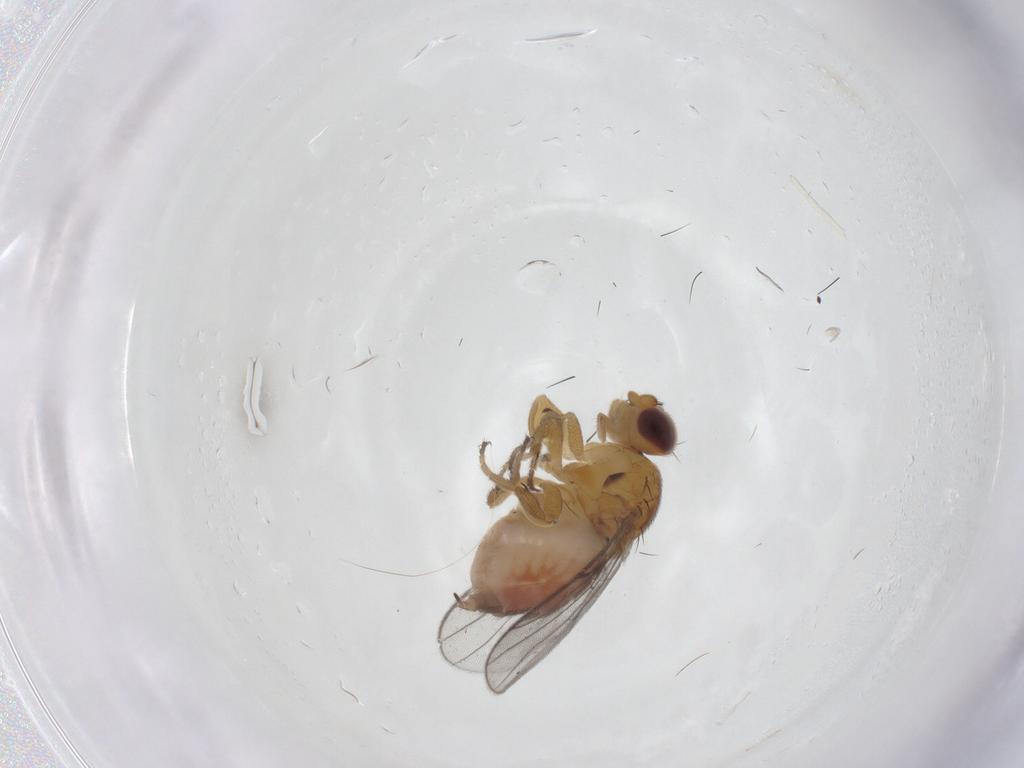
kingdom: Animalia
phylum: Arthropoda
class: Insecta
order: Diptera
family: Chloropidae
